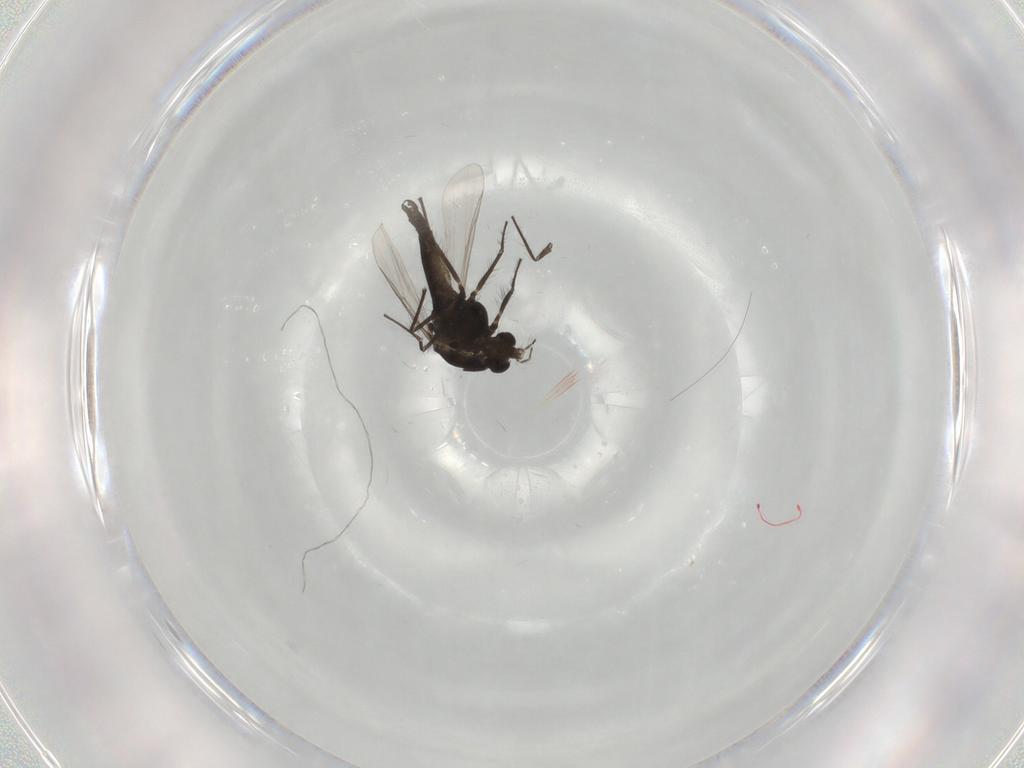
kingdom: Animalia
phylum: Arthropoda
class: Insecta
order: Diptera
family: Chironomidae
